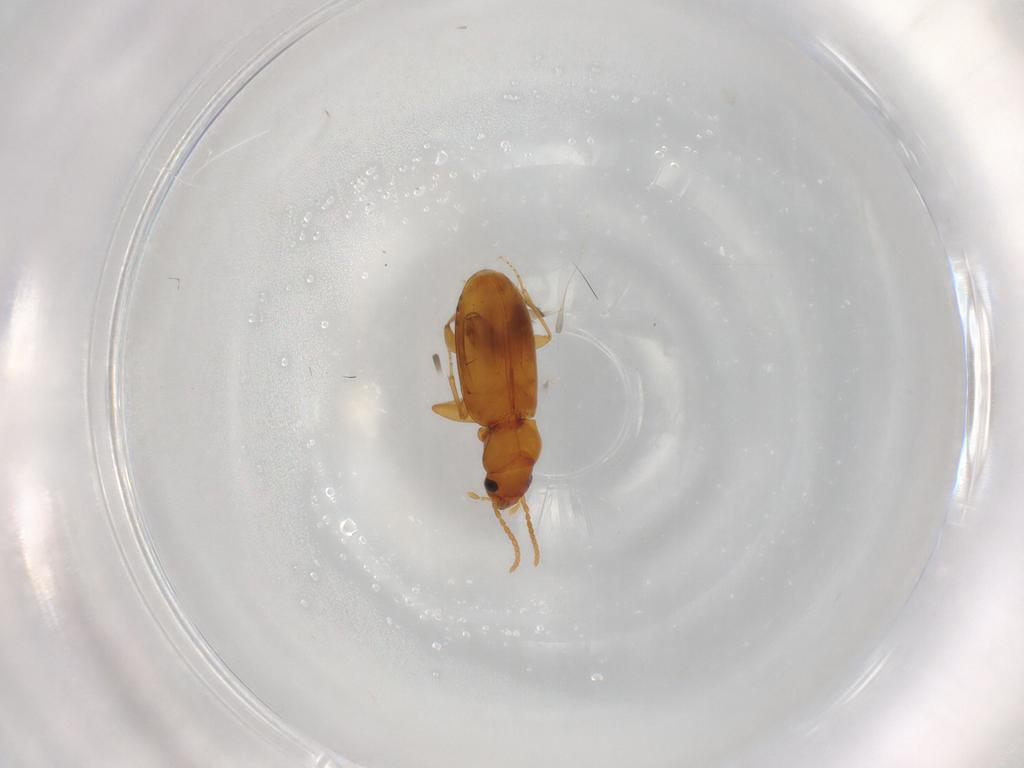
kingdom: Animalia
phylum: Arthropoda
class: Insecta
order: Coleoptera
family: Carabidae
